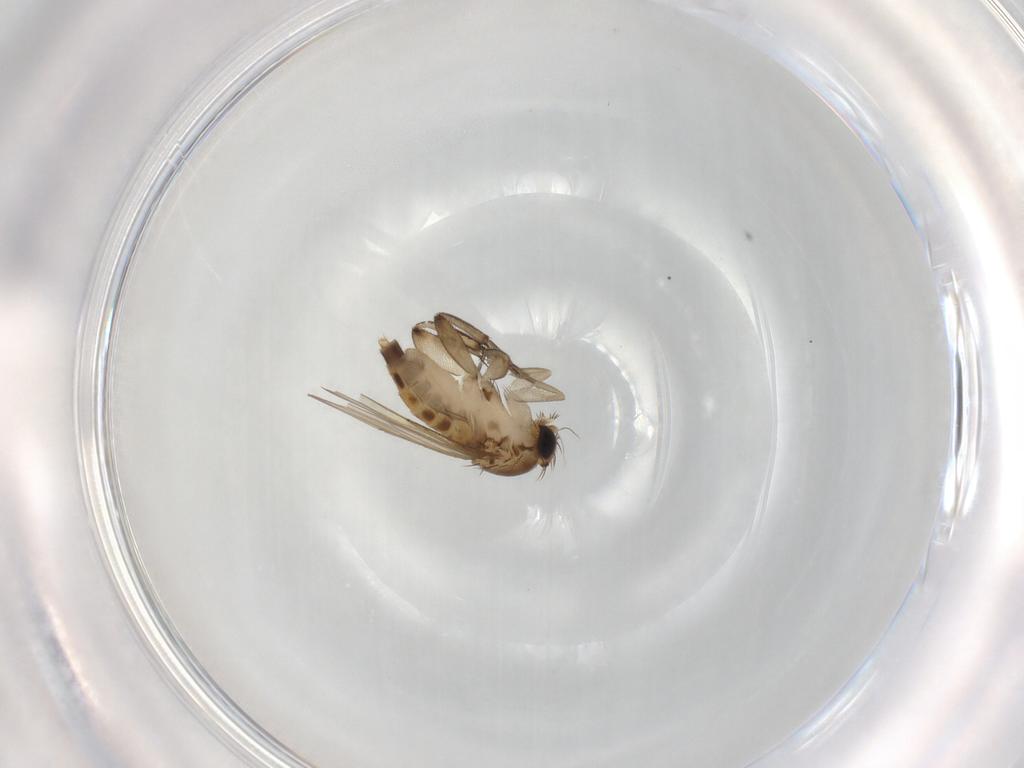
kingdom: Animalia
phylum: Arthropoda
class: Insecta
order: Diptera
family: Phoridae
